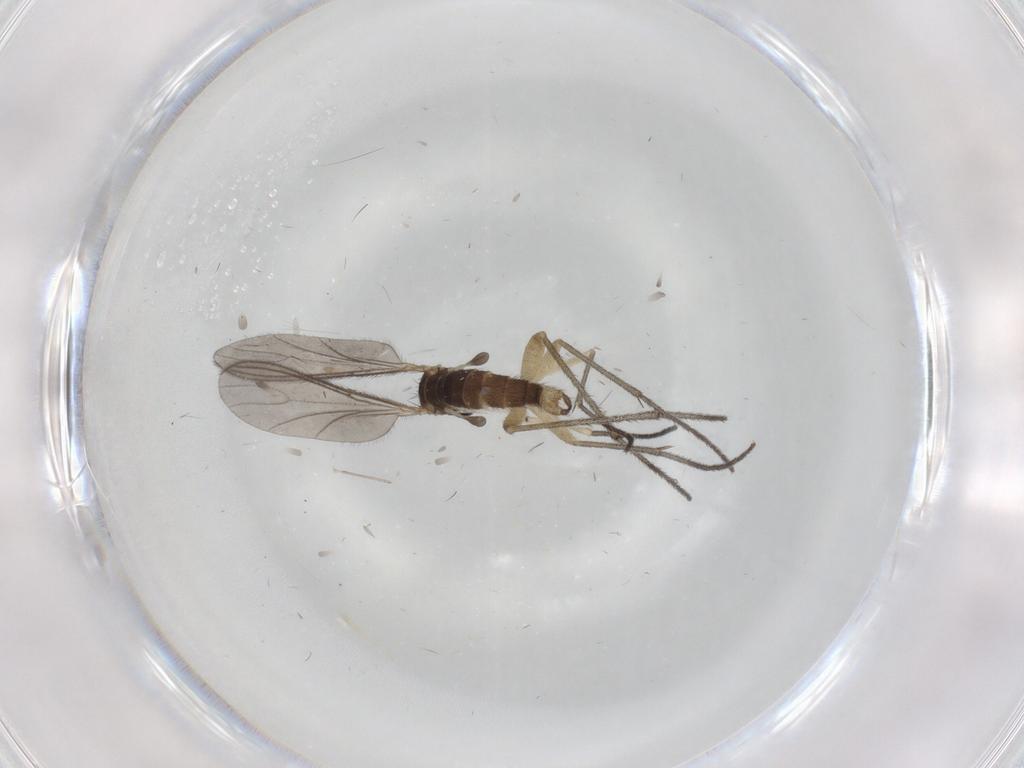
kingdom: Animalia
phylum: Arthropoda
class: Insecta
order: Diptera
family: Sciaridae
